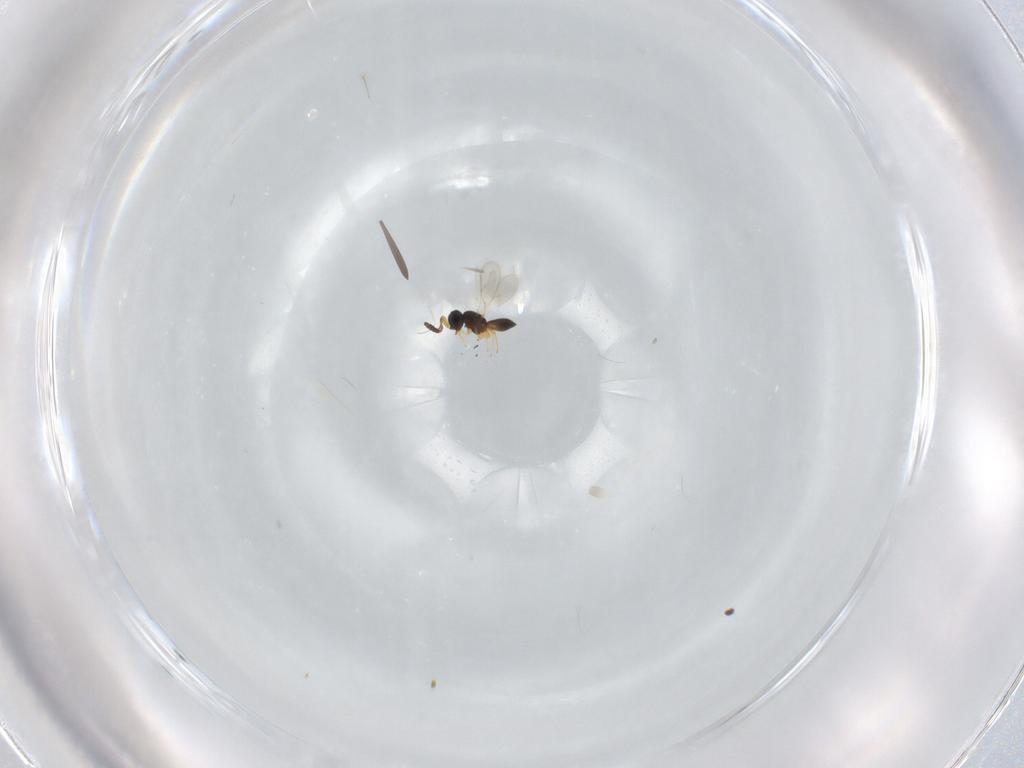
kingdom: Animalia
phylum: Arthropoda
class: Insecta
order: Hymenoptera
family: Scelionidae
